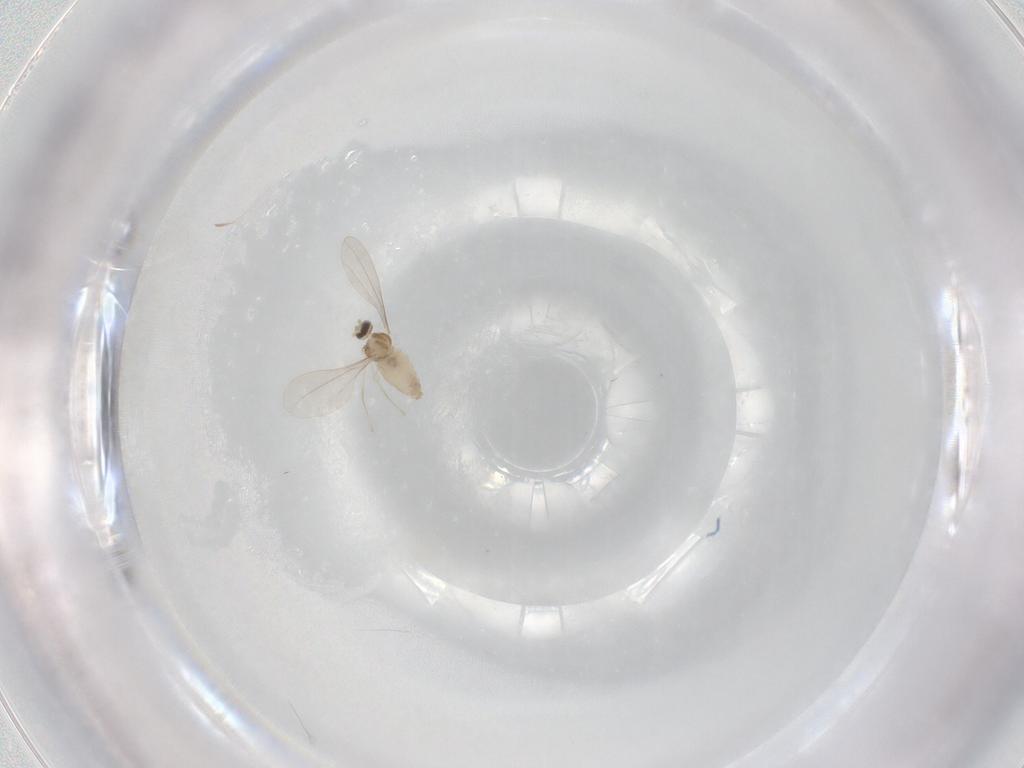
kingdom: Animalia
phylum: Arthropoda
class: Insecta
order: Diptera
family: Cecidomyiidae
